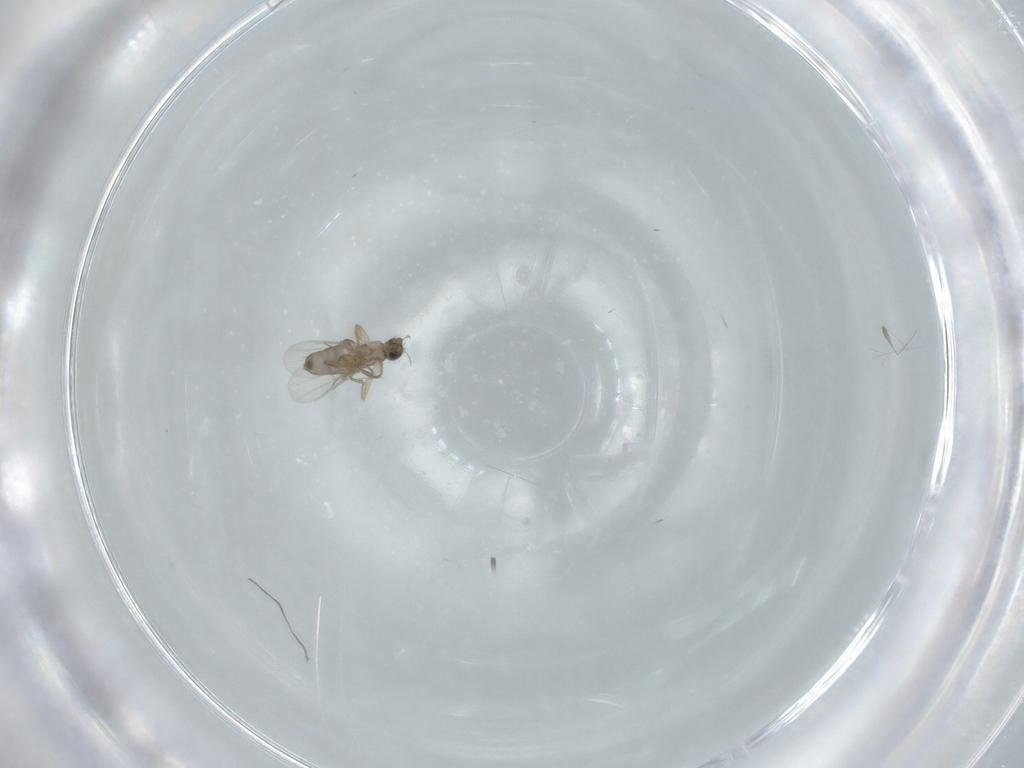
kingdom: Animalia
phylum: Arthropoda
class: Insecta
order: Diptera
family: Phoridae
